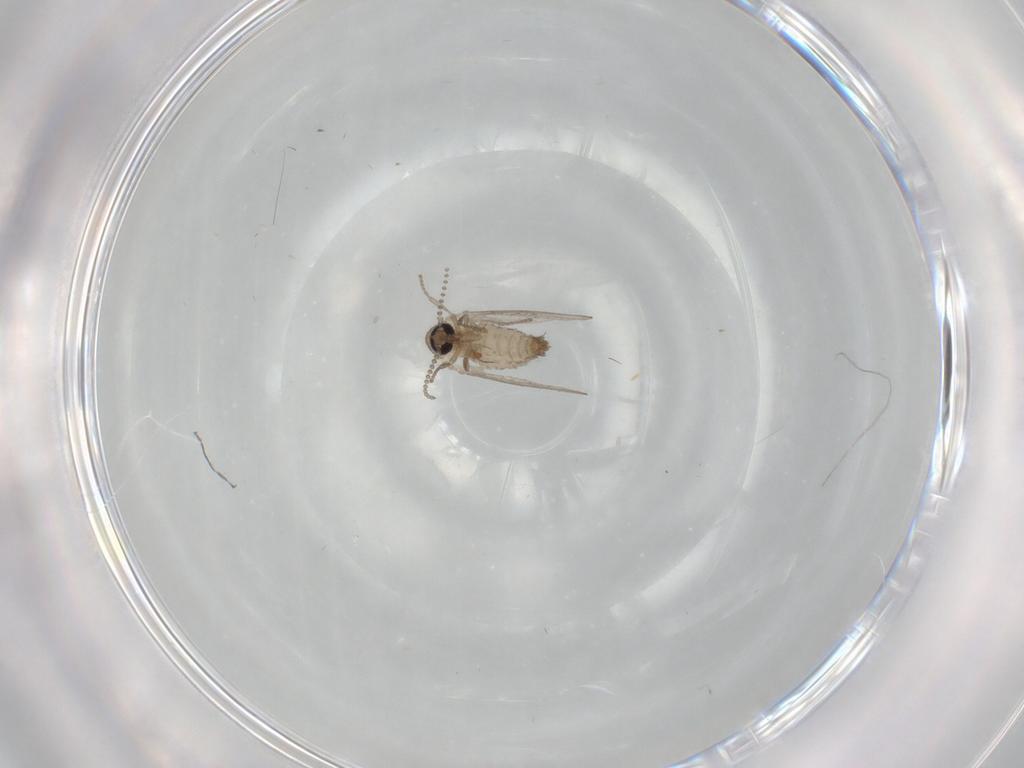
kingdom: Animalia
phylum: Arthropoda
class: Insecta
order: Diptera
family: Psychodidae
